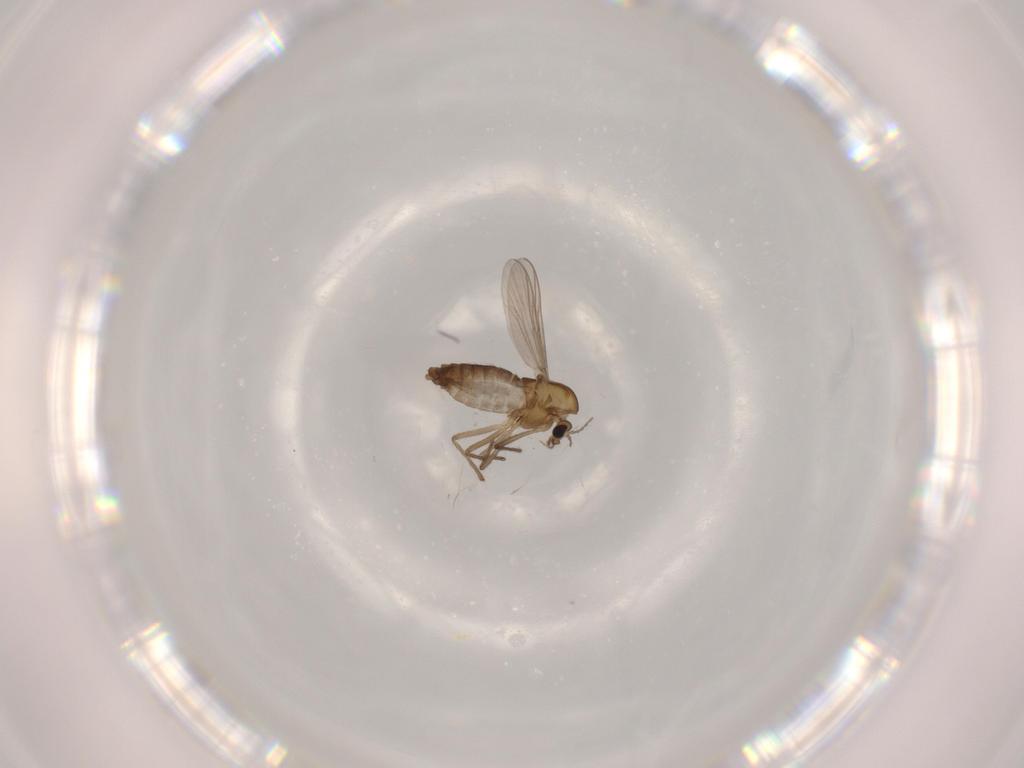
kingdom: Animalia
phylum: Arthropoda
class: Insecta
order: Diptera
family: Chironomidae
